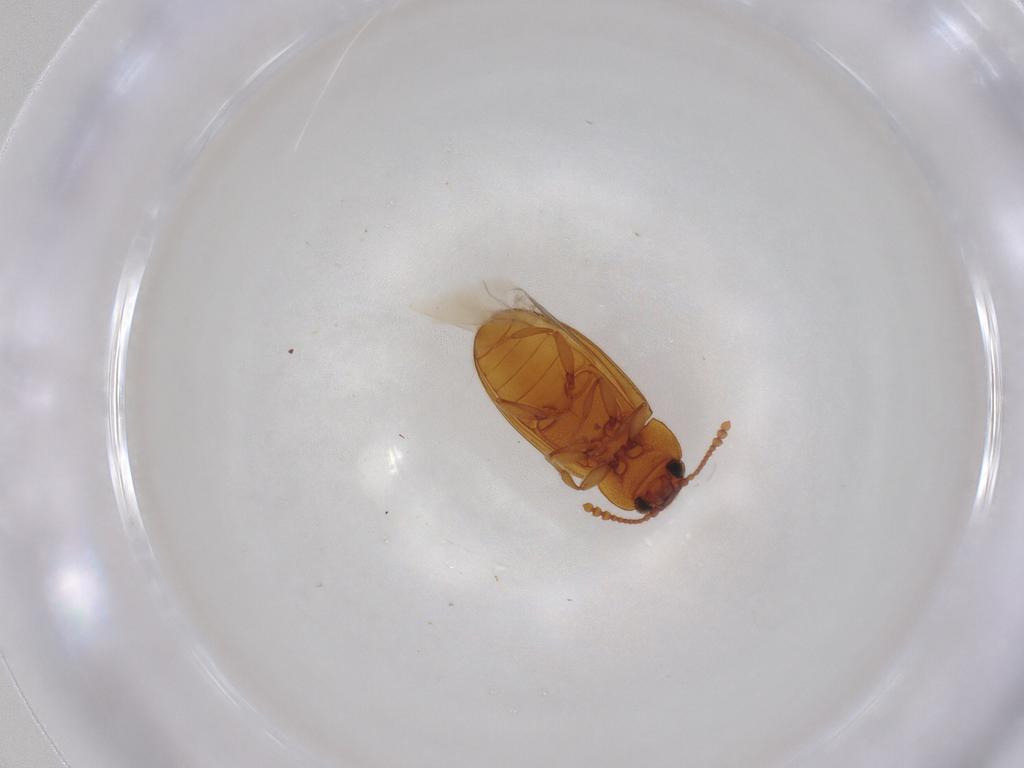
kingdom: Animalia
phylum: Arthropoda
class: Insecta
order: Coleoptera
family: Erotylidae
